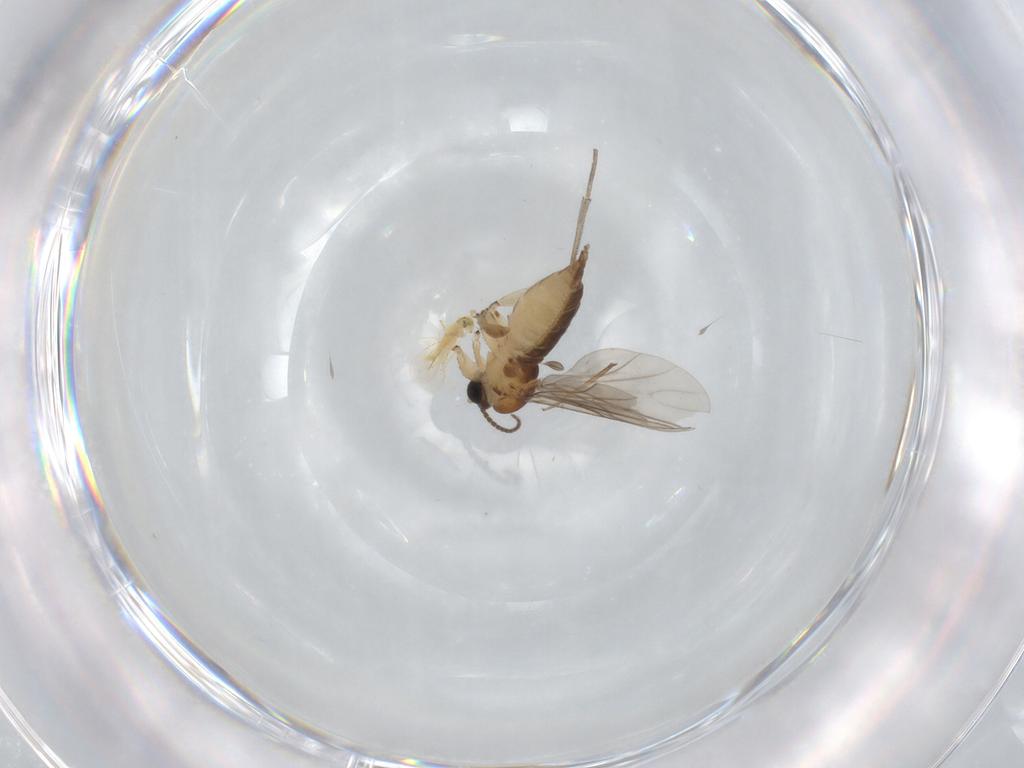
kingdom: Animalia
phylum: Arthropoda
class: Insecta
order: Diptera
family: Sciaridae
